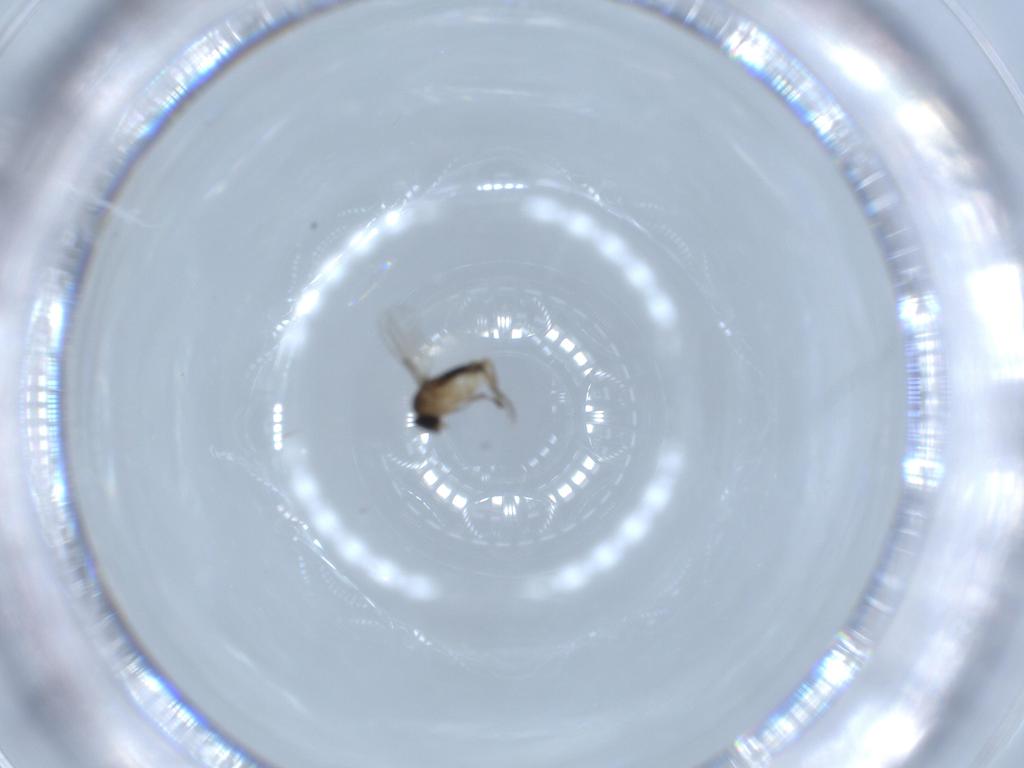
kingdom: Animalia
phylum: Arthropoda
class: Insecta
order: Diptera
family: Phoridae
